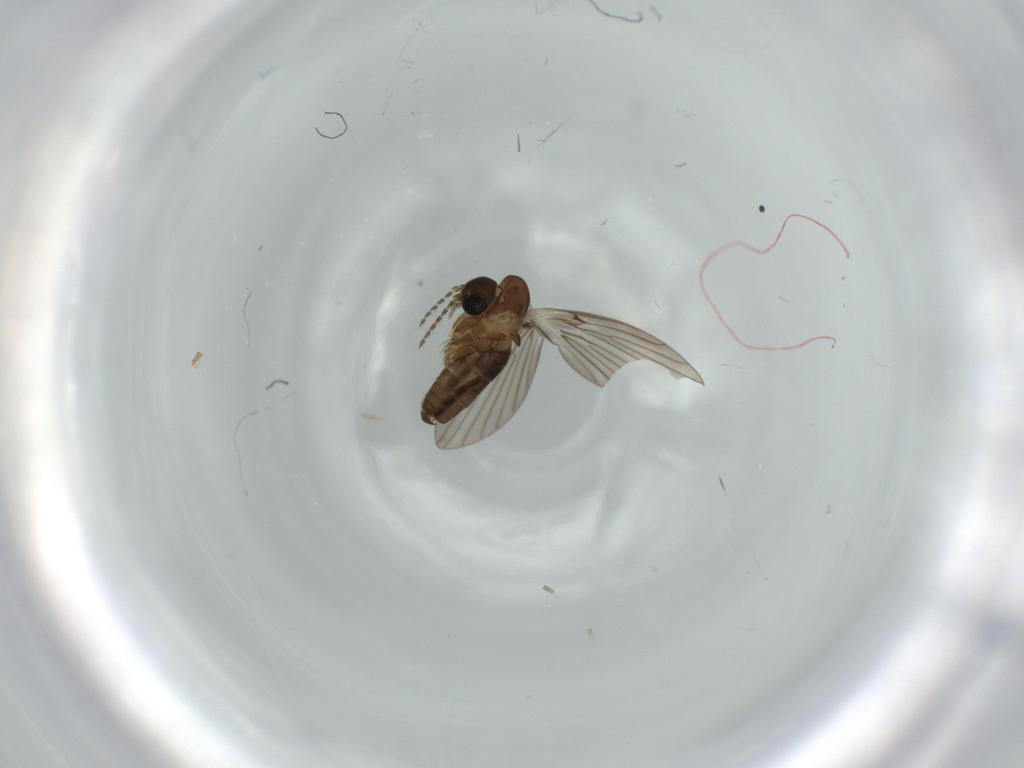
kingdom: Animalia
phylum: Arthropoda
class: Insecta
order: Diptera
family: Psychodidae
